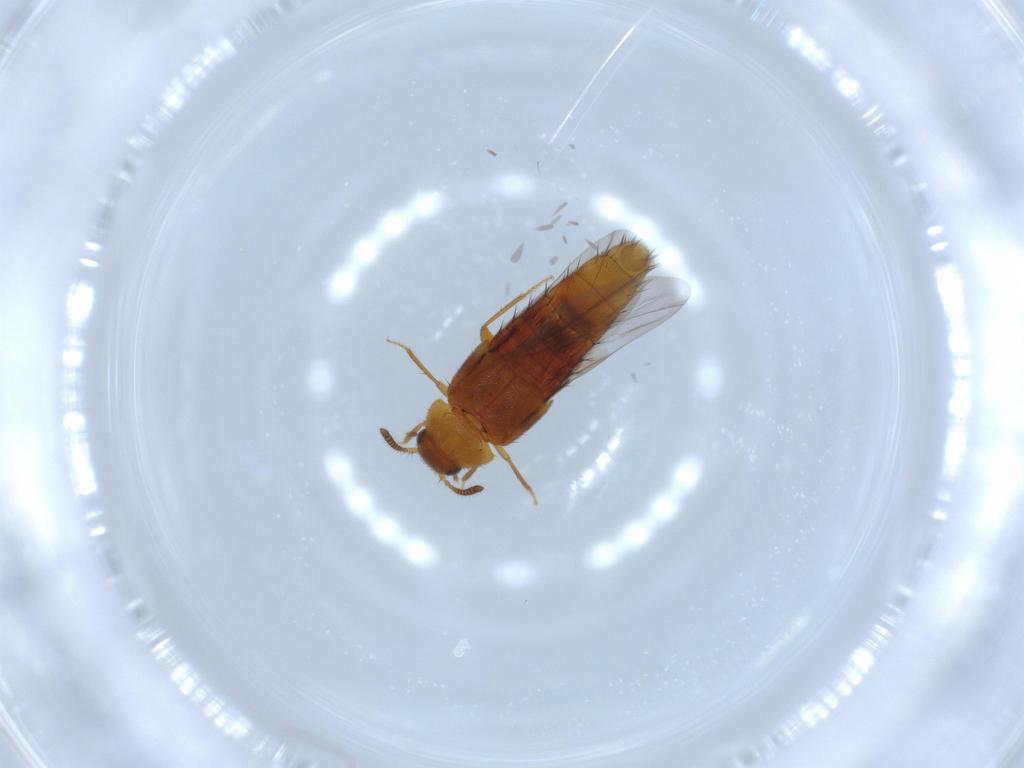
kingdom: Animalia
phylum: Arthropoda
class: Insecta
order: Coleoptera
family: Staphylinidae
